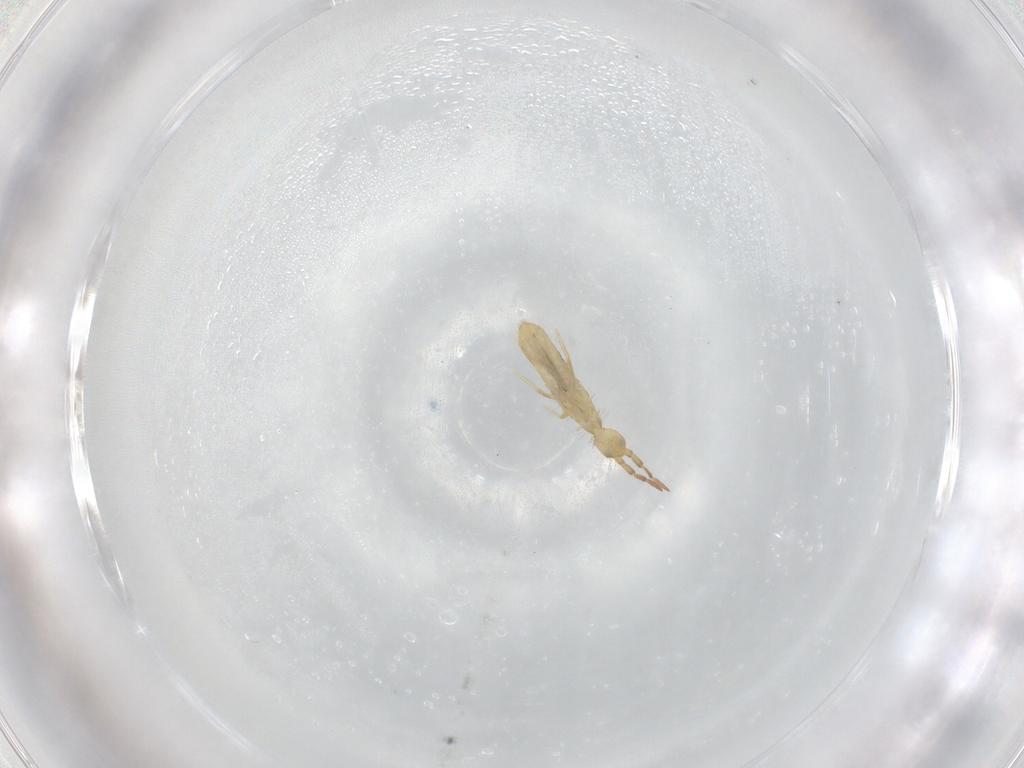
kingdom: Animalia
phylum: Arthropoda
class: Collembola
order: Entomobryomorpha
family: Entomobryidae
